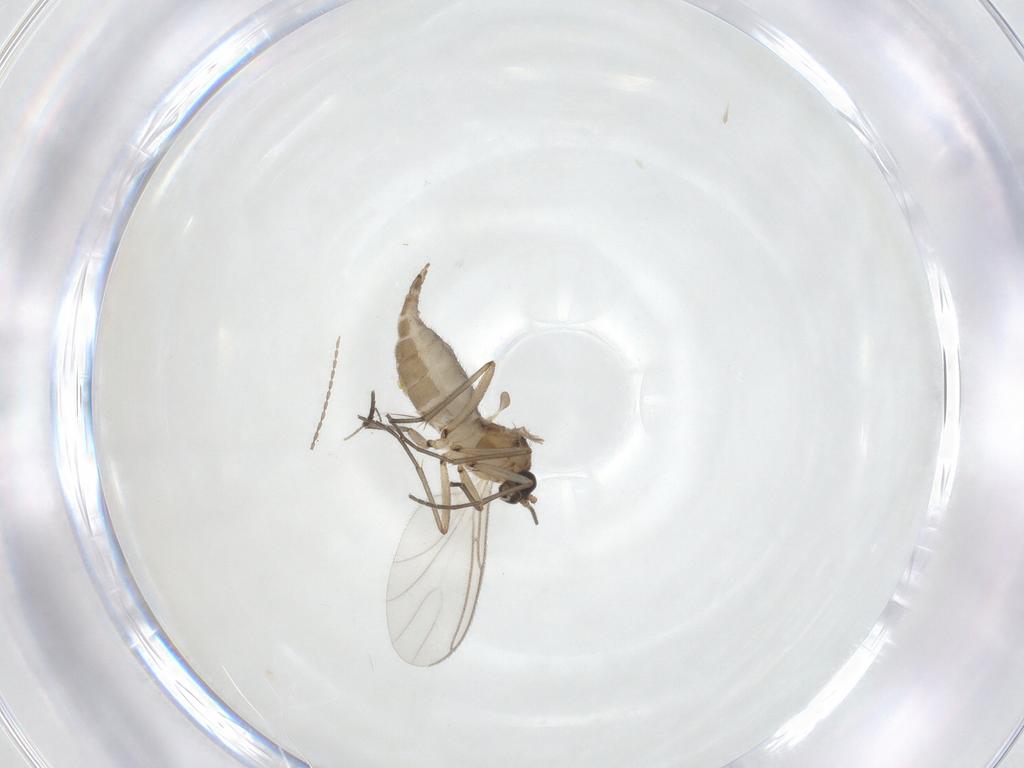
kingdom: Animalia
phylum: Arthropoda
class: Insecta
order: Diptera
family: Cecidomyiidae
